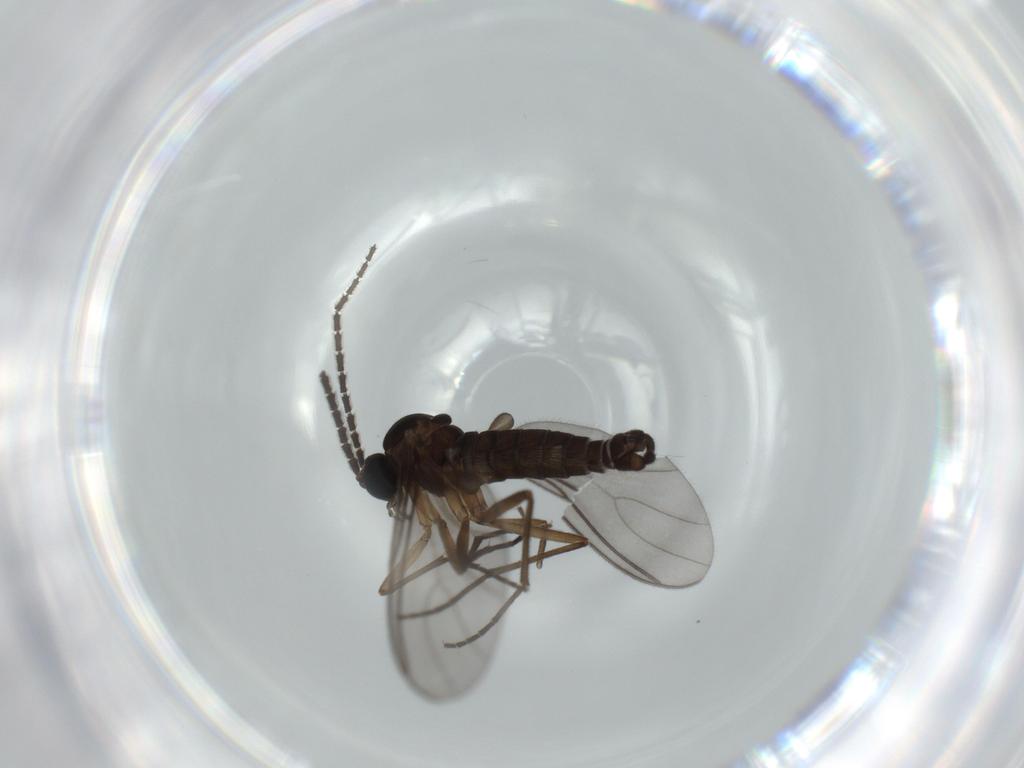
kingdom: Animalia
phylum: Arthropoda
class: Insecta
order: Diptera
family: Sciaridae
